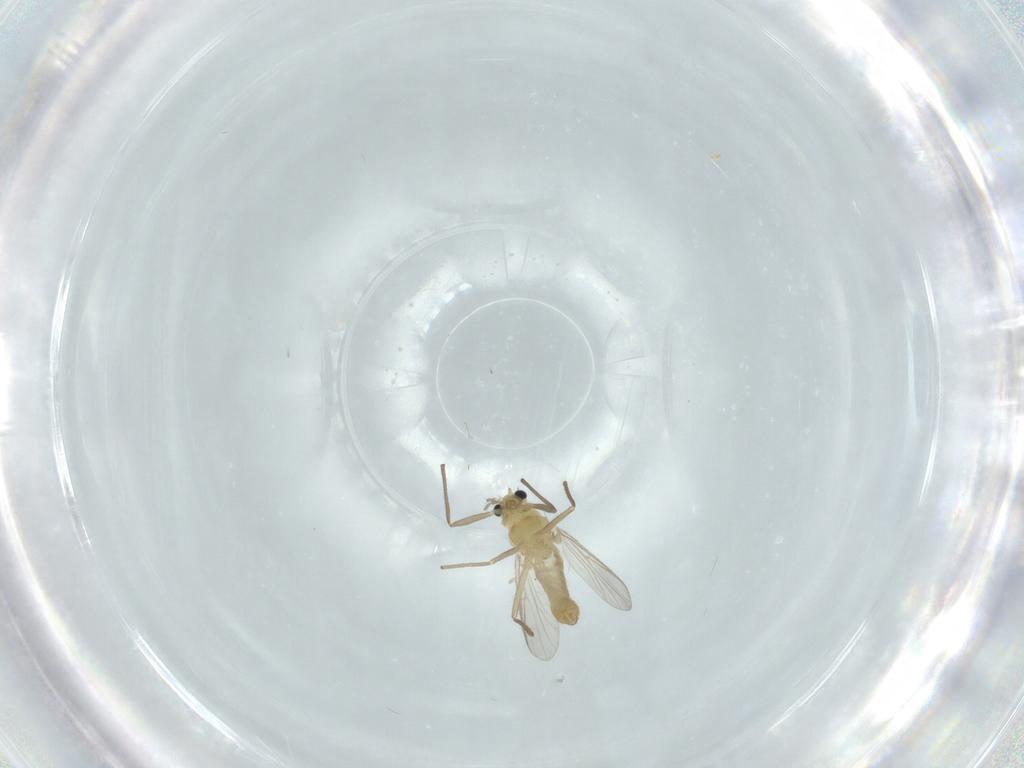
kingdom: Animalia
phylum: Arthropoda
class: Insecta
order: Diptera
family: Chironomidae
